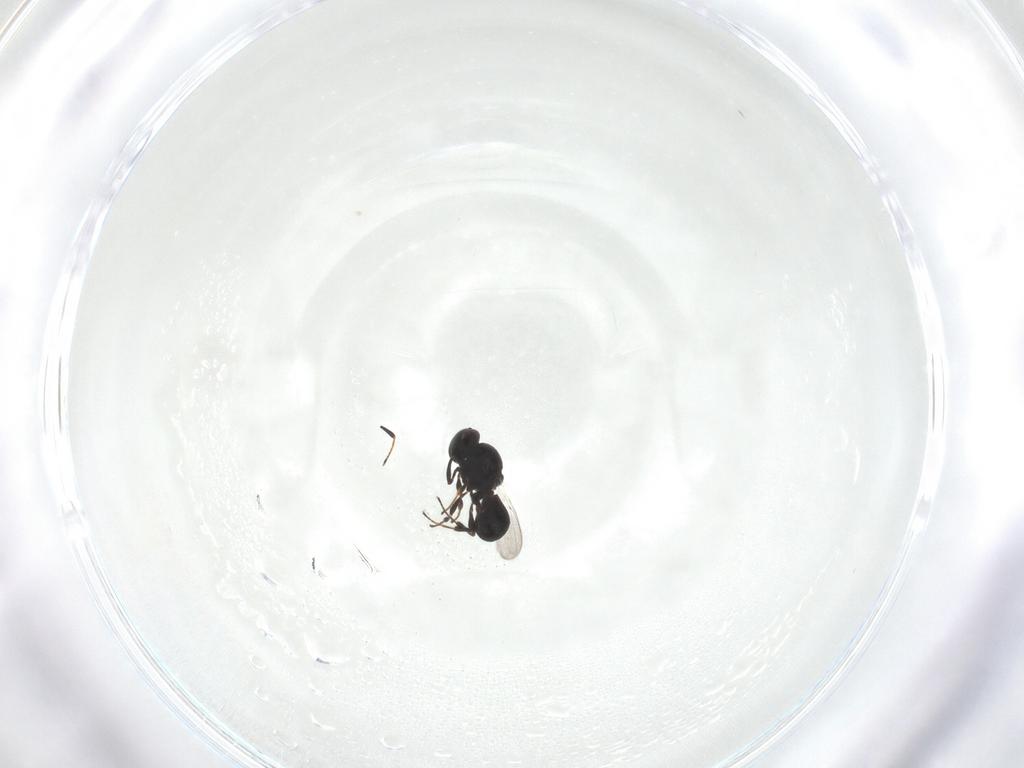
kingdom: Animalia
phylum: Arthropoda
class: Insecta
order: Hymenoptera
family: Platygastridae
